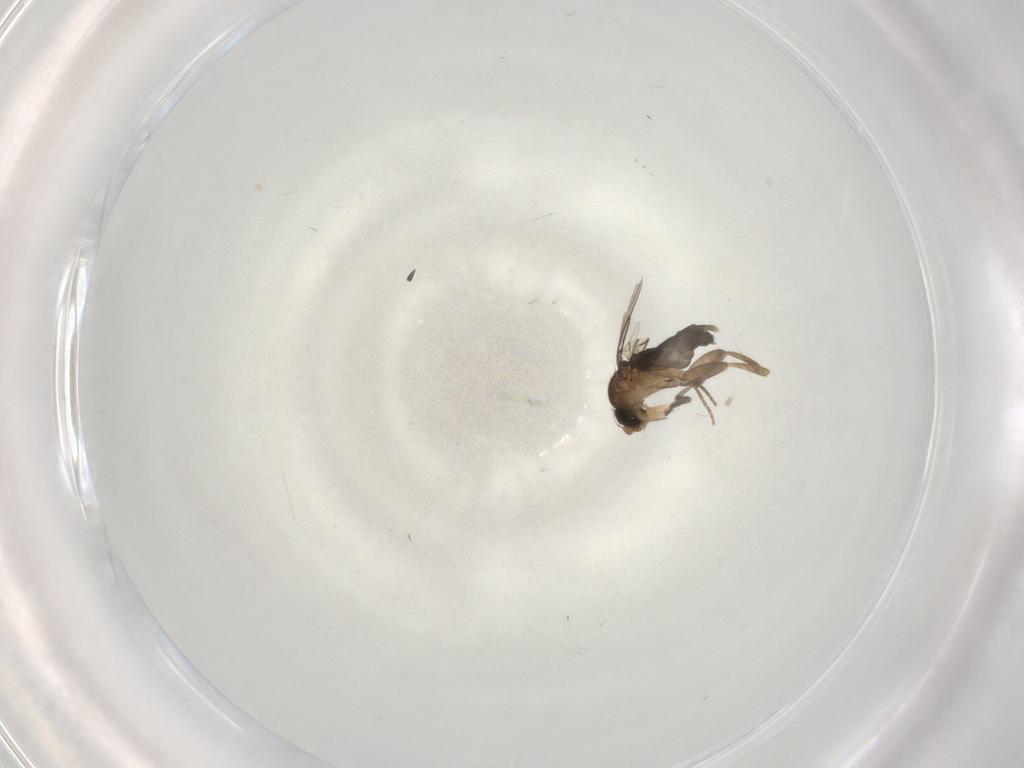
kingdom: Animalia
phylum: Arthropoda
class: Insecta
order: Diptera
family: Phoridae
